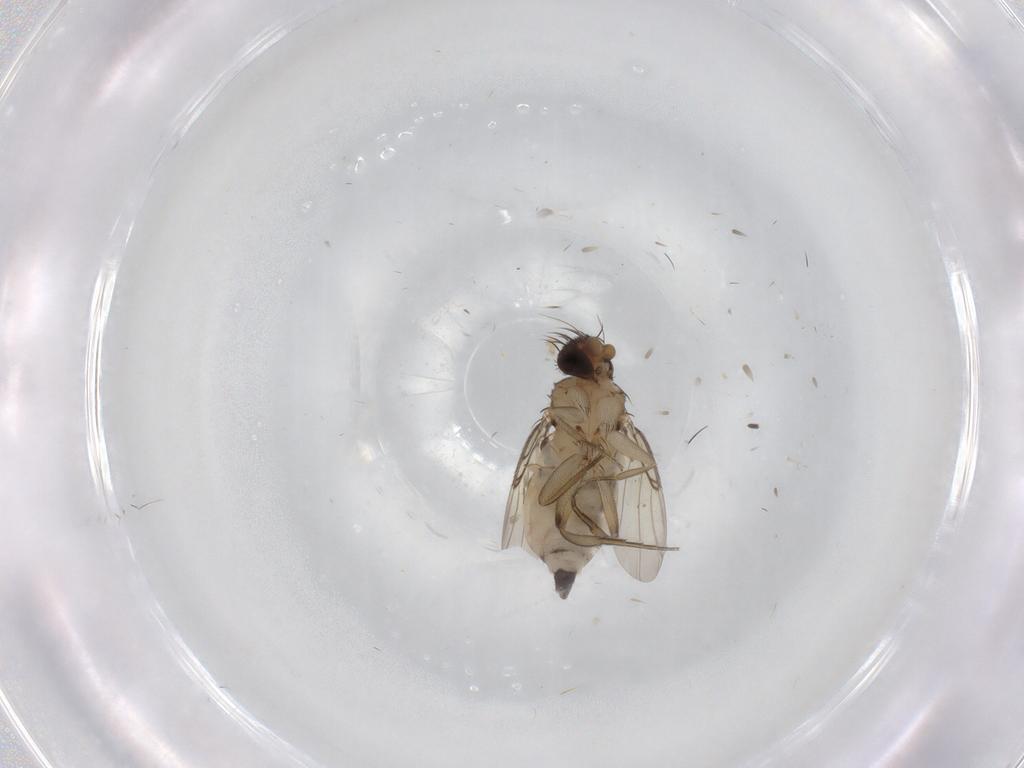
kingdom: Animalia
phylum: Arthropoda
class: Insecta
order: Diptera
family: Phoridae
